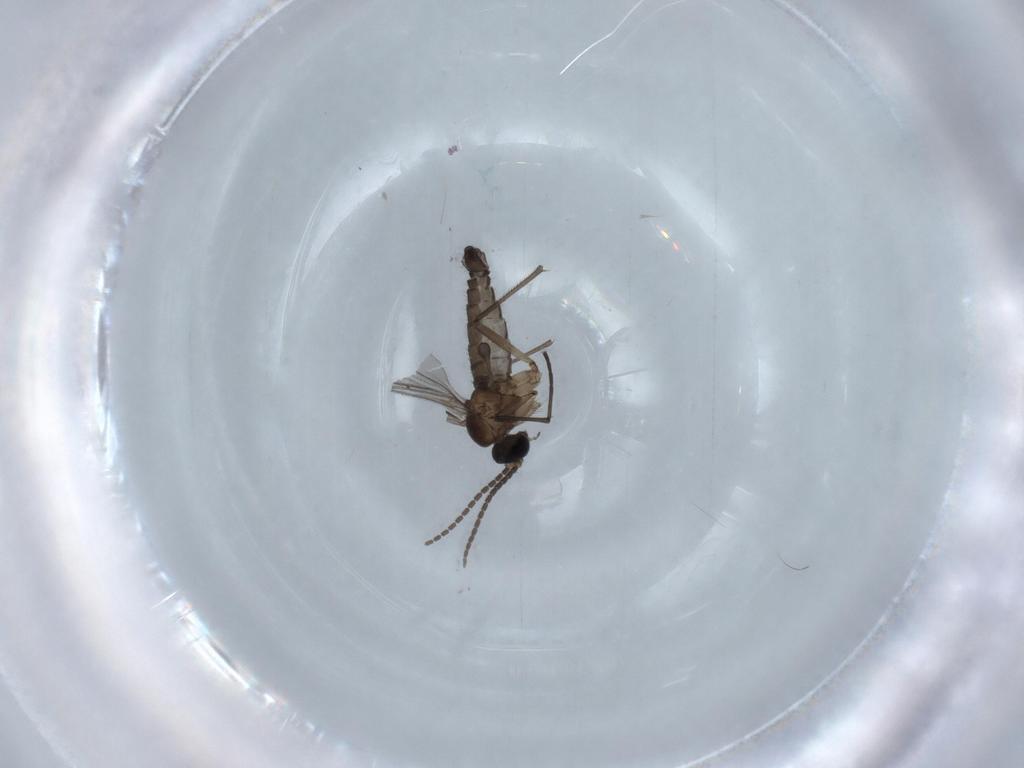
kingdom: Animalia
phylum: Arthropoda
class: Insecta
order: Diptera
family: Sciaridae
